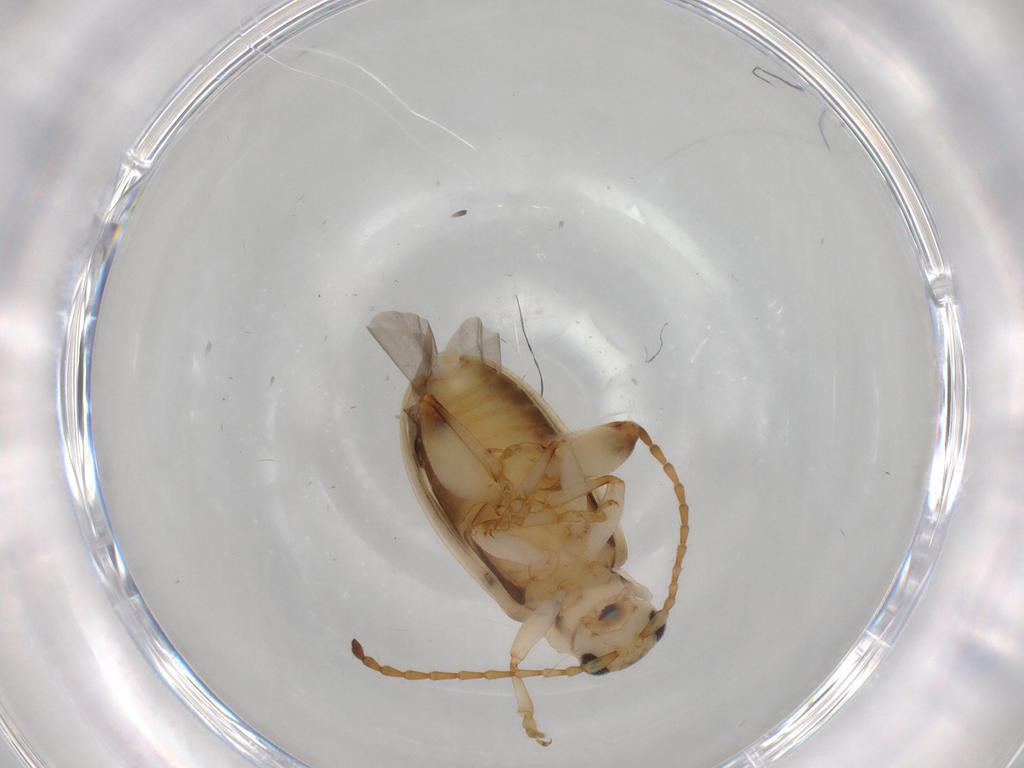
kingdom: Animalia
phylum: Arthropoda
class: Insecta
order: Coleoptera
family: Chrysomelidae
